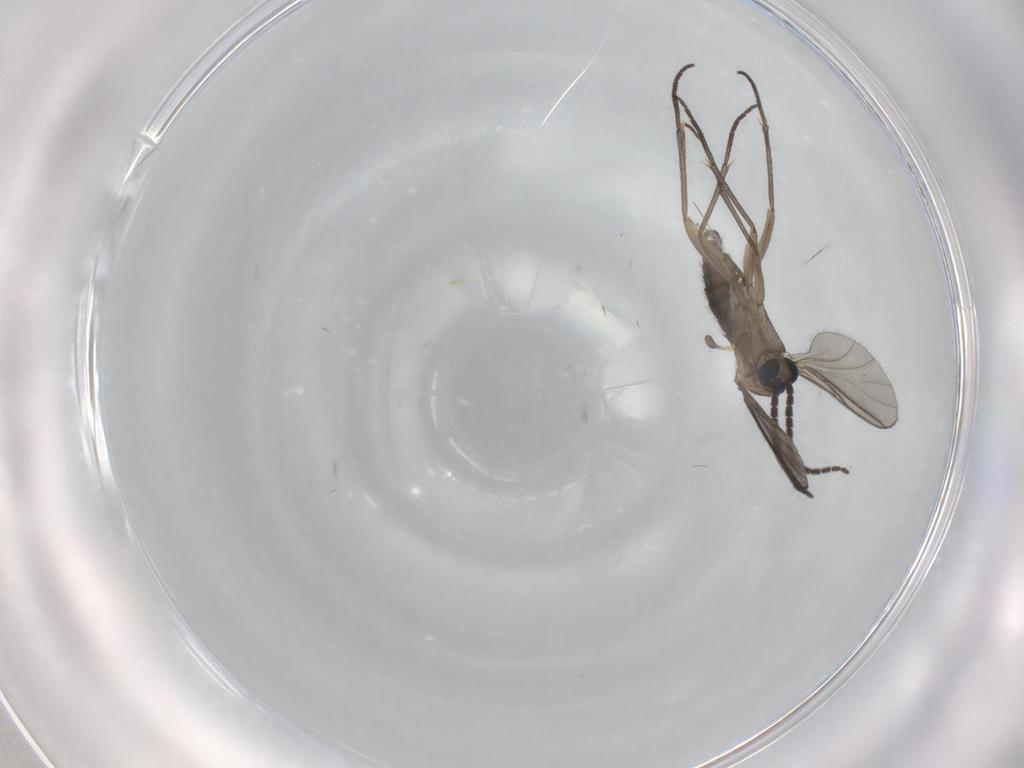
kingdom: Animalia
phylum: Arthropoda
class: Insecta
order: Diptera
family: Sciaridae
